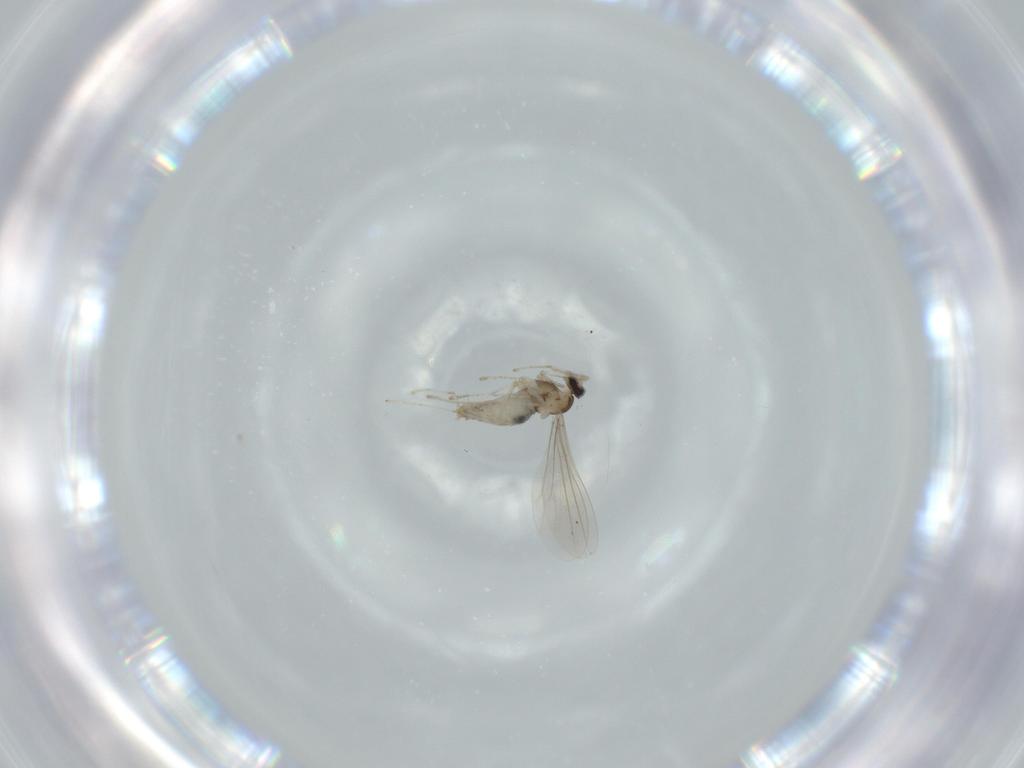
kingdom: Animalia
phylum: Arthropoda
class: Insecta
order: Diptera
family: Cecidomyiidae
